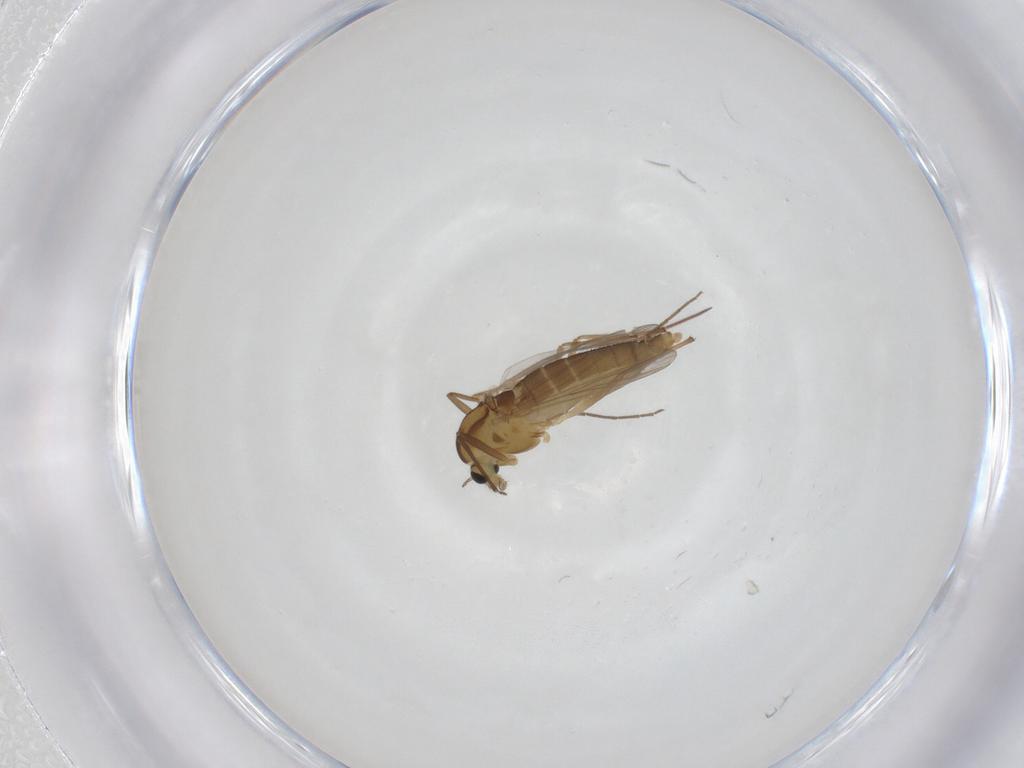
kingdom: Animalia
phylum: Arthropoda
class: Insecta
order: Diptera
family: Chironomidae
